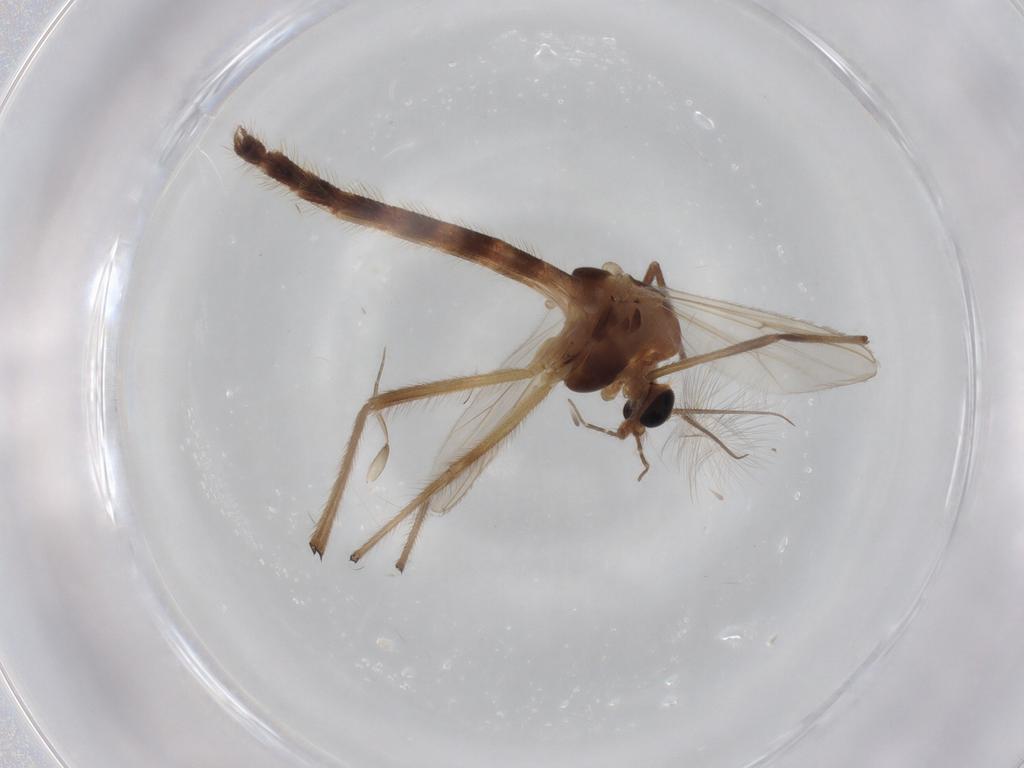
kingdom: Animalia
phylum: Arthropoda
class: Insecta
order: Diptera
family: Chironomidae
